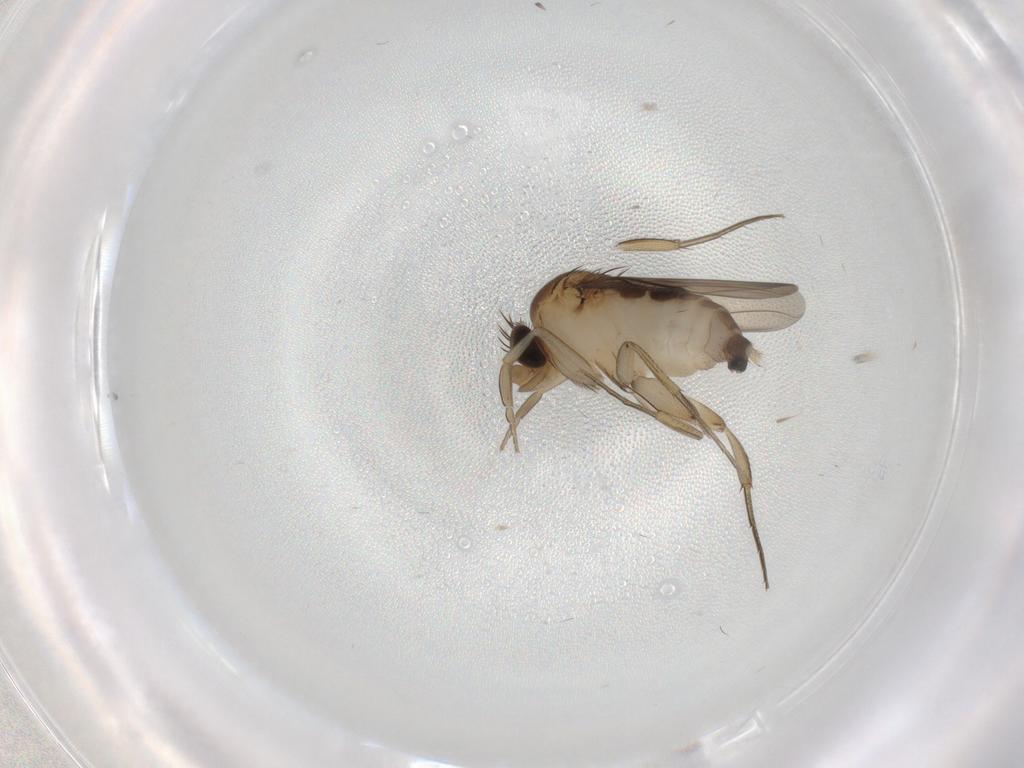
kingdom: Animalia
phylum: Arthropoda
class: Insecta
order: Diptera
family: Phoridae
